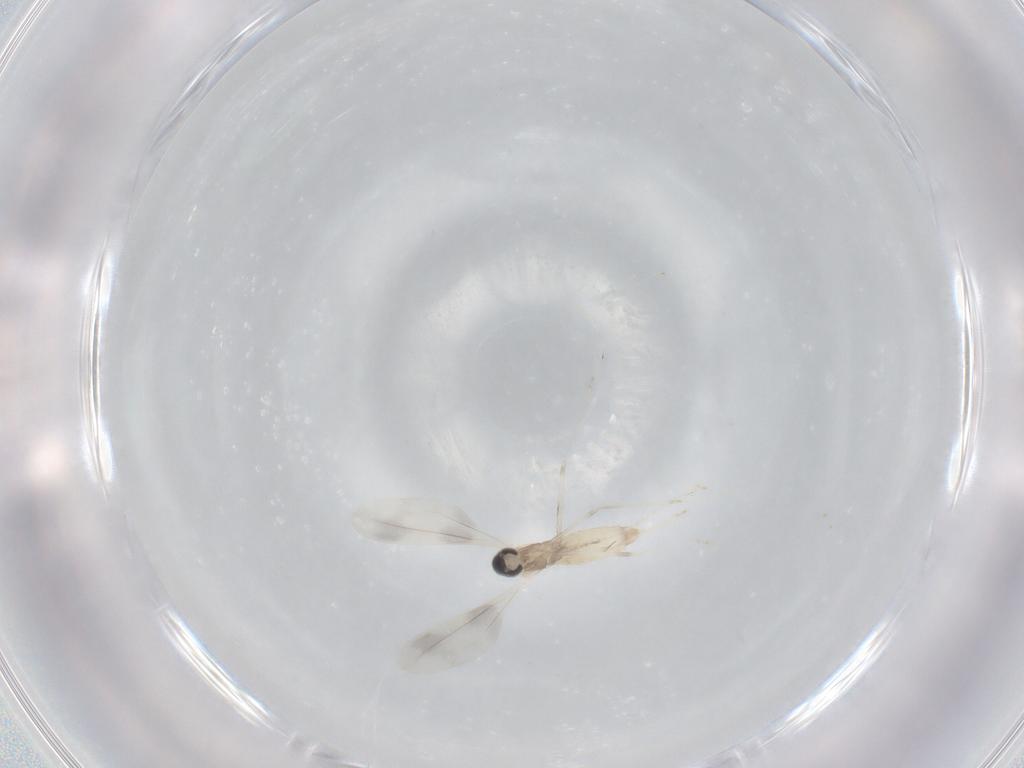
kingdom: Animalia
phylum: Arthropoda
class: Insecta
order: Diptera
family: Cecidomyiidae
